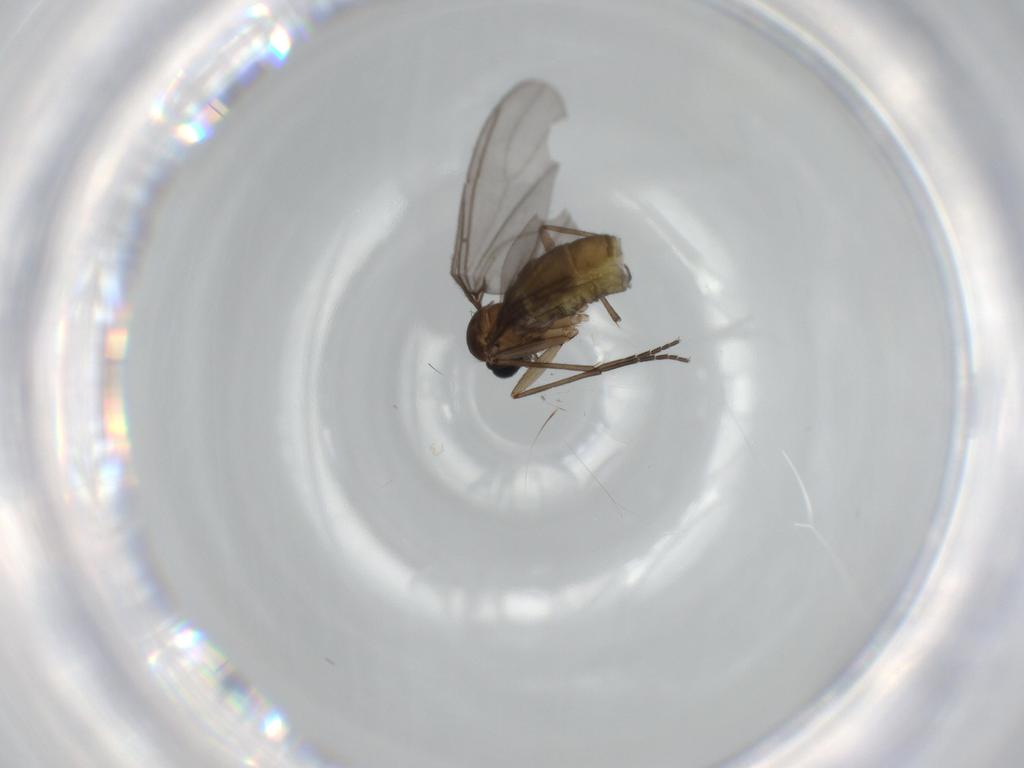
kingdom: Animalia
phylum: Arthropoda
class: Insecta
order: Diptera
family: Sciaridae
